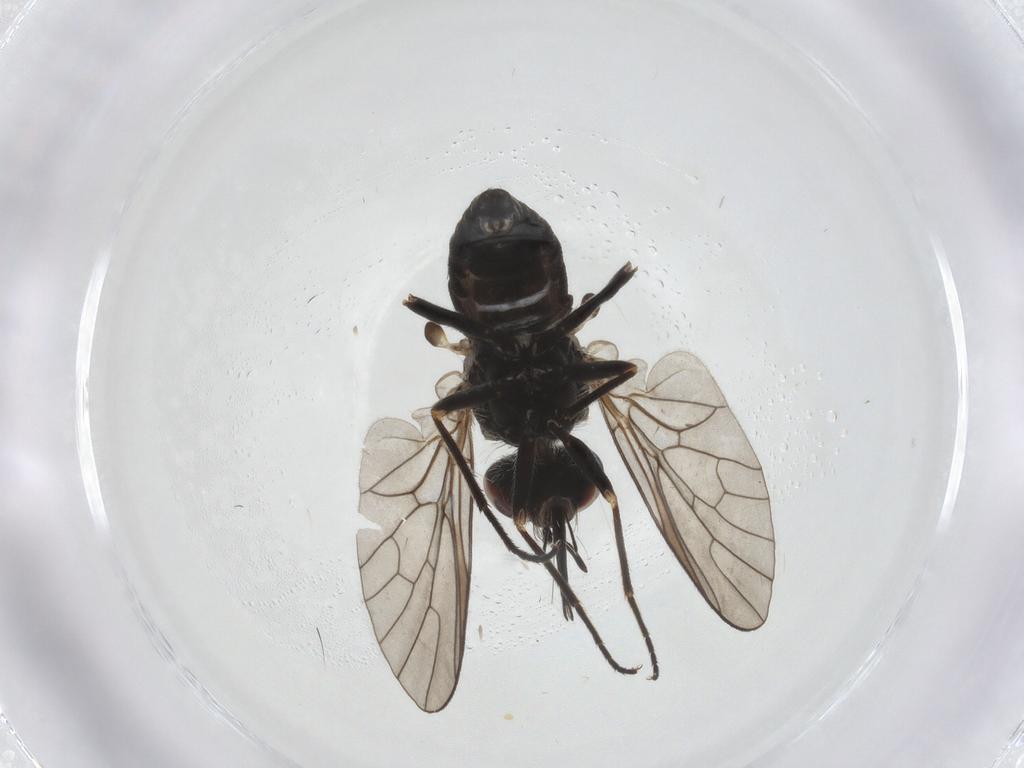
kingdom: Animalia
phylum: Arthropoda
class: Insecta
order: Diptera
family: Bombyliidae
